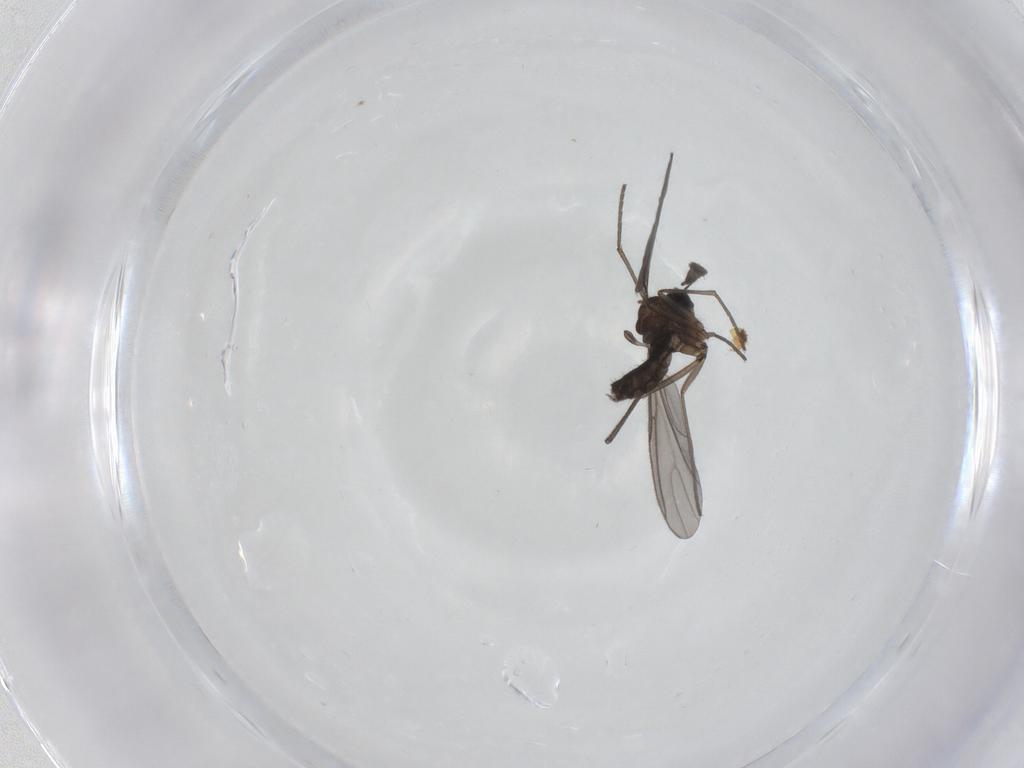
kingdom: Animalia
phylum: Arthropoda
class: Insecta
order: Diptera
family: Sciaridae
